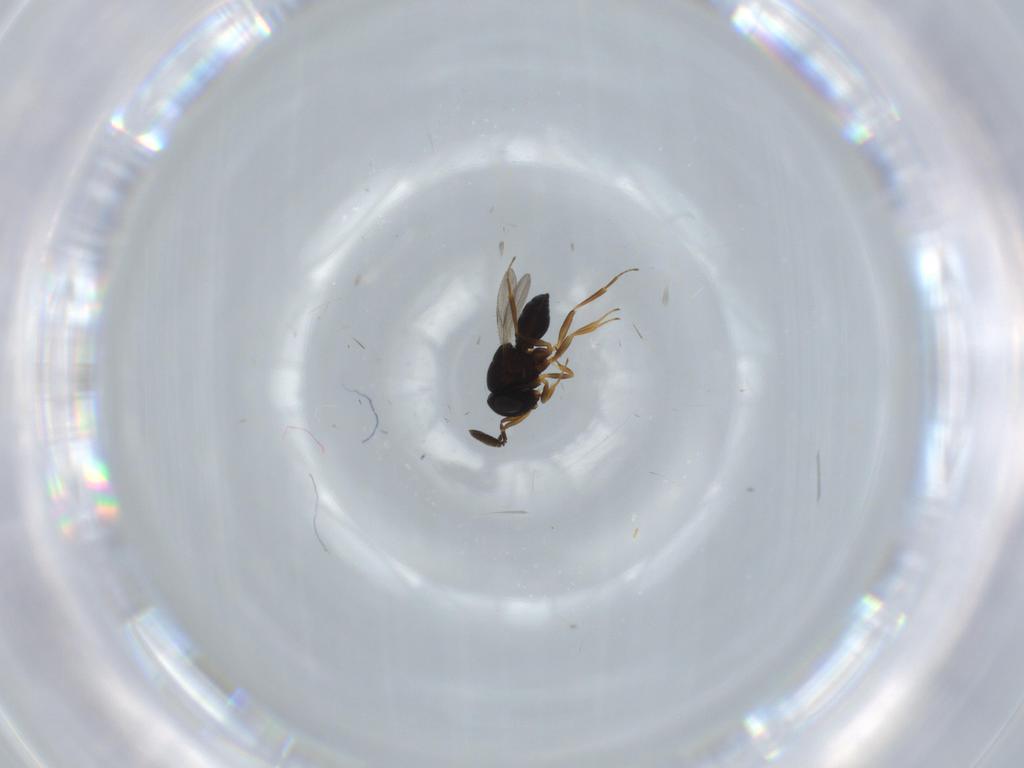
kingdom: Animalia
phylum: Arthropoda
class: Insecta
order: Coleoptera
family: Curculionidae
